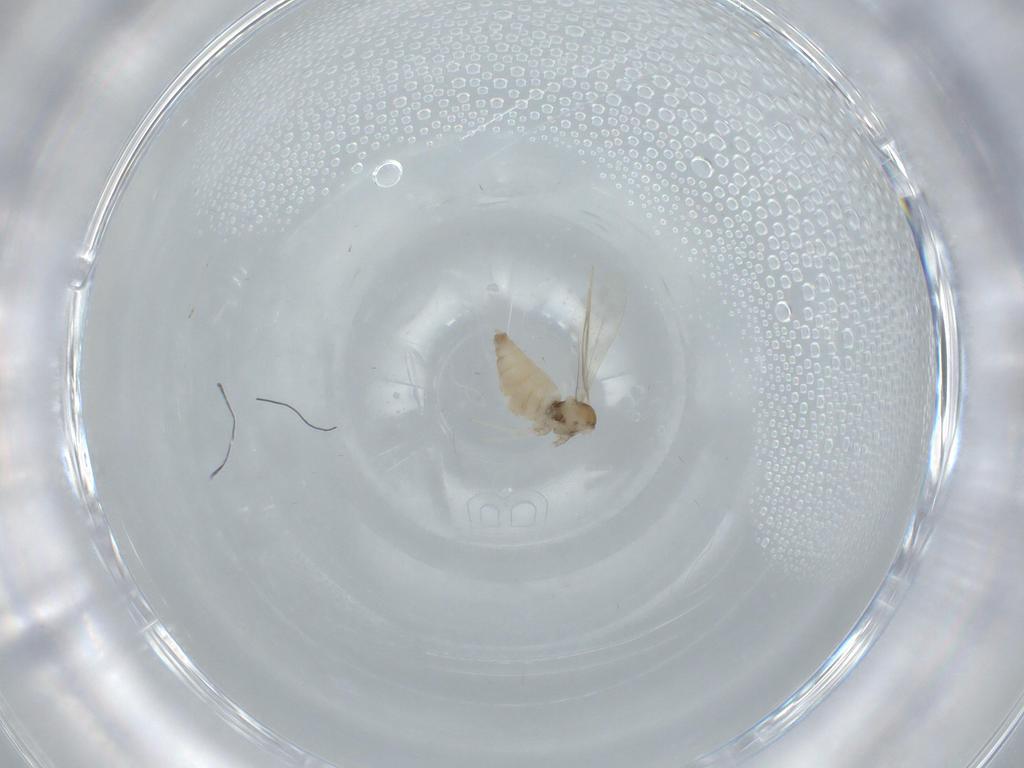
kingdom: Animalia
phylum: Arthropoda
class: Insecta
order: Diptera
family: Cecidomyiidae
